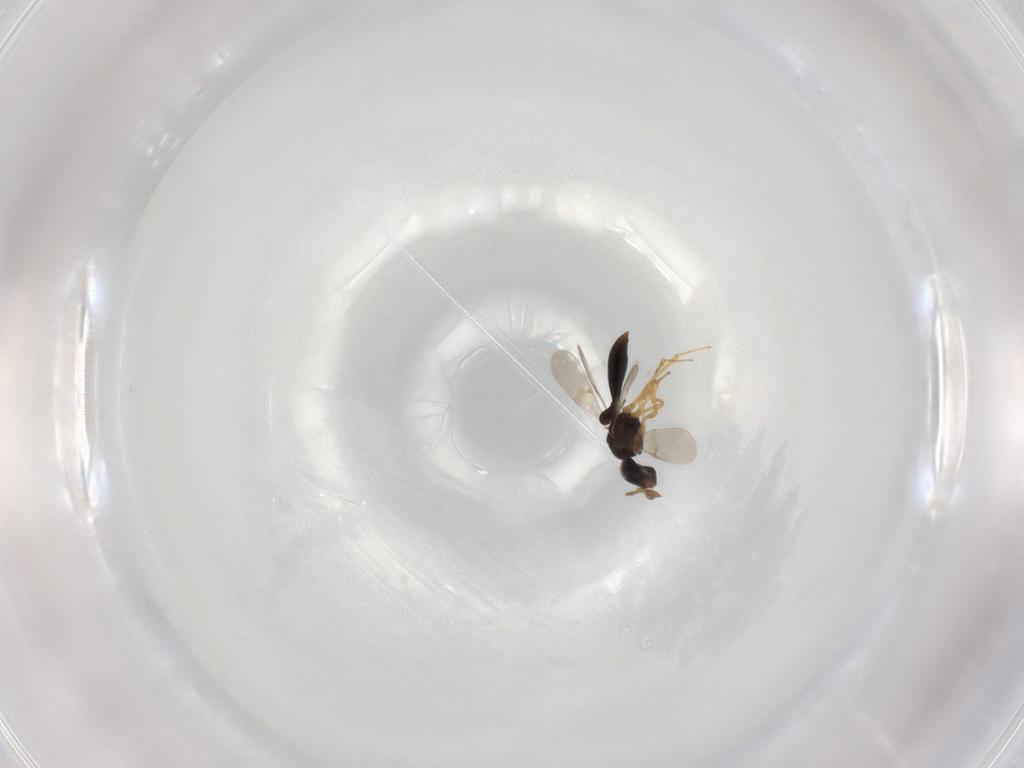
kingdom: Animalia
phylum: Arthropoda
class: Insecta
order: Hymenoptera
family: Scelionidae
